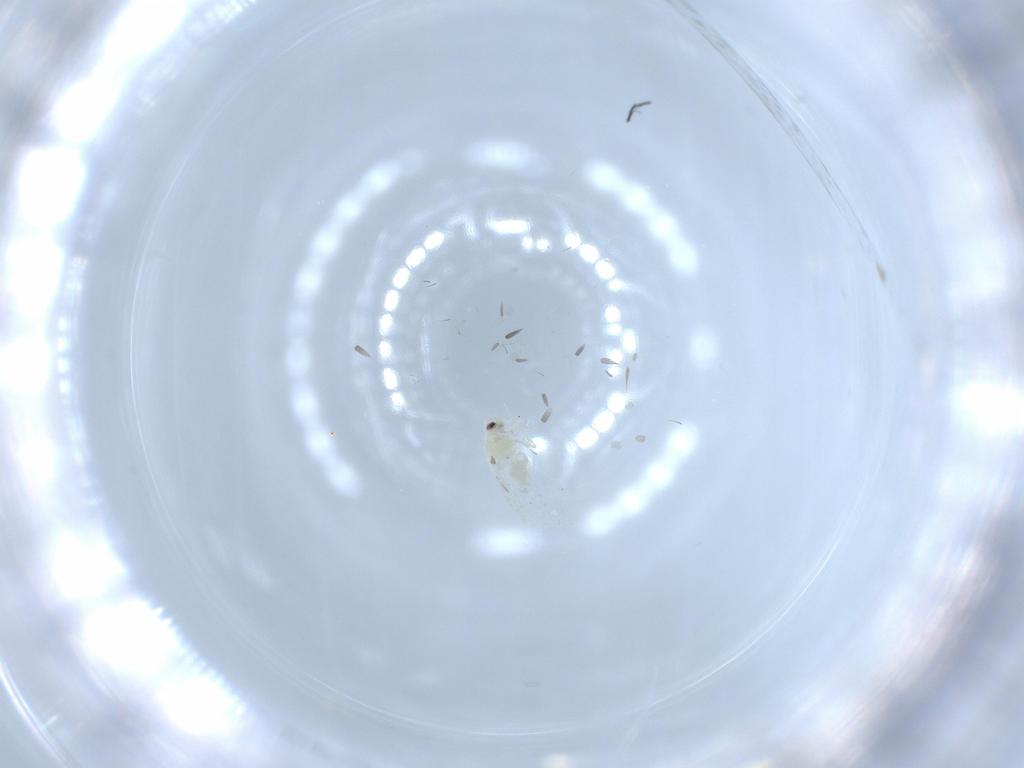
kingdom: Animalia
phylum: Arthropoda
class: Insecta
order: Hemiptera
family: Aleyrodidae
